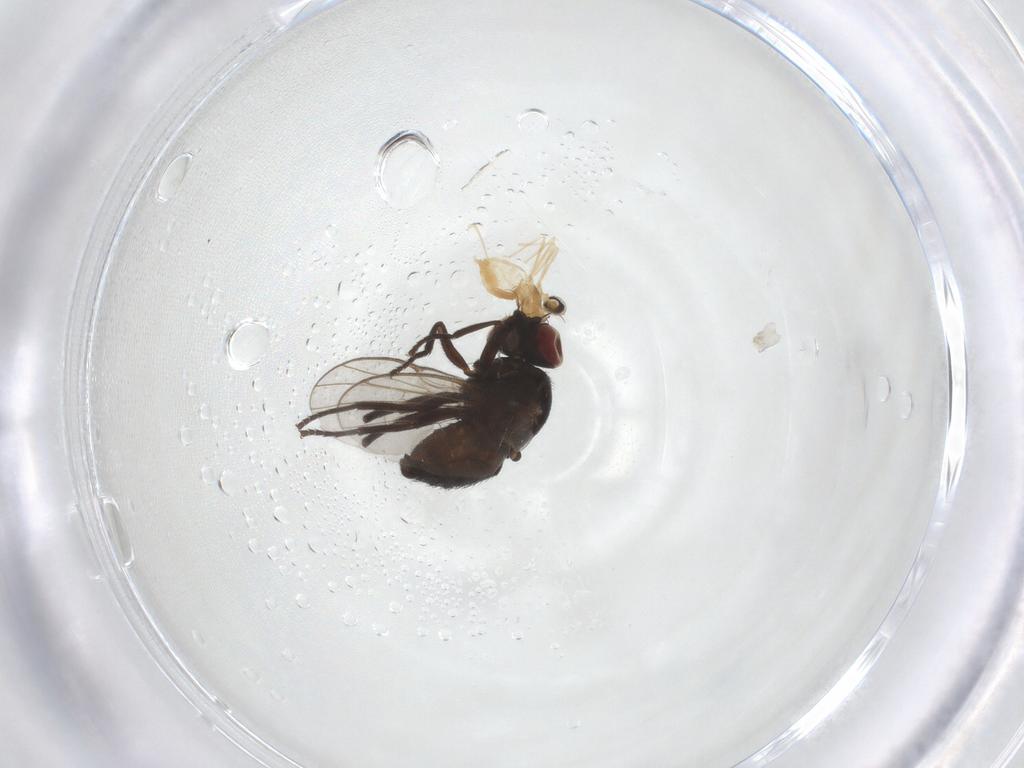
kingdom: Animalia
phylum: Arthropoda
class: Insecta
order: Diptera
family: Cecidomyiidae
